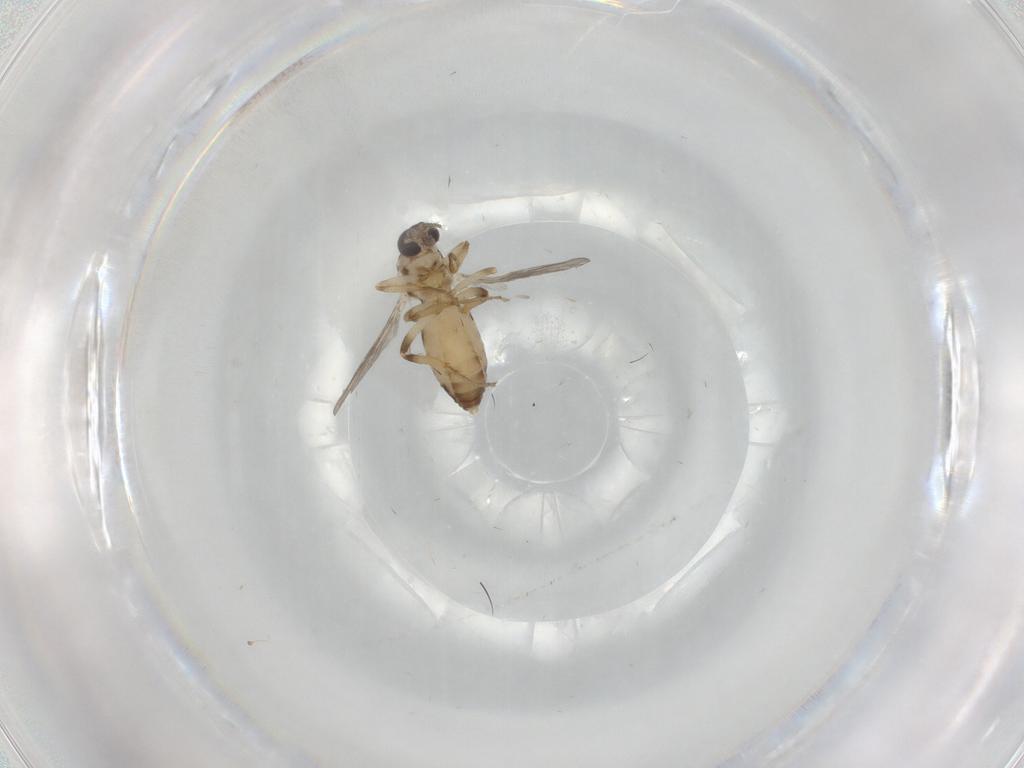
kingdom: Animalia
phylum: Arthropoda
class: Insecta
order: Diptera
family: Ceratopogonidae
